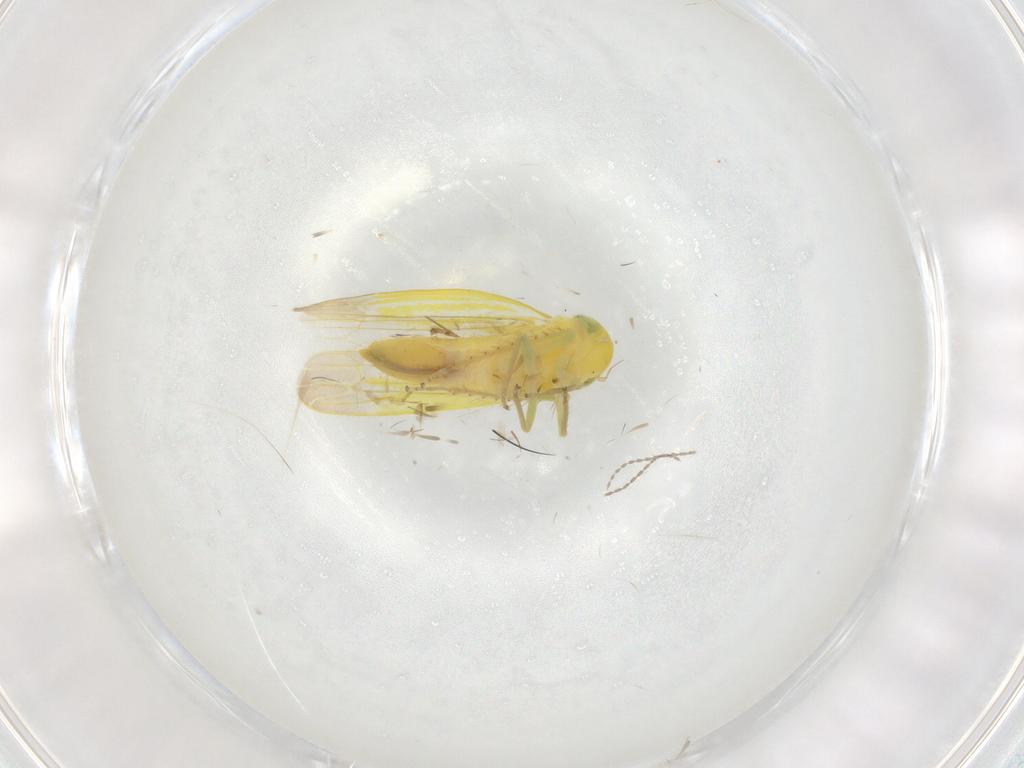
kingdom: Animalia
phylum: Arthropoda
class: Insecta
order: Hemiptera
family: Cicadellidae
